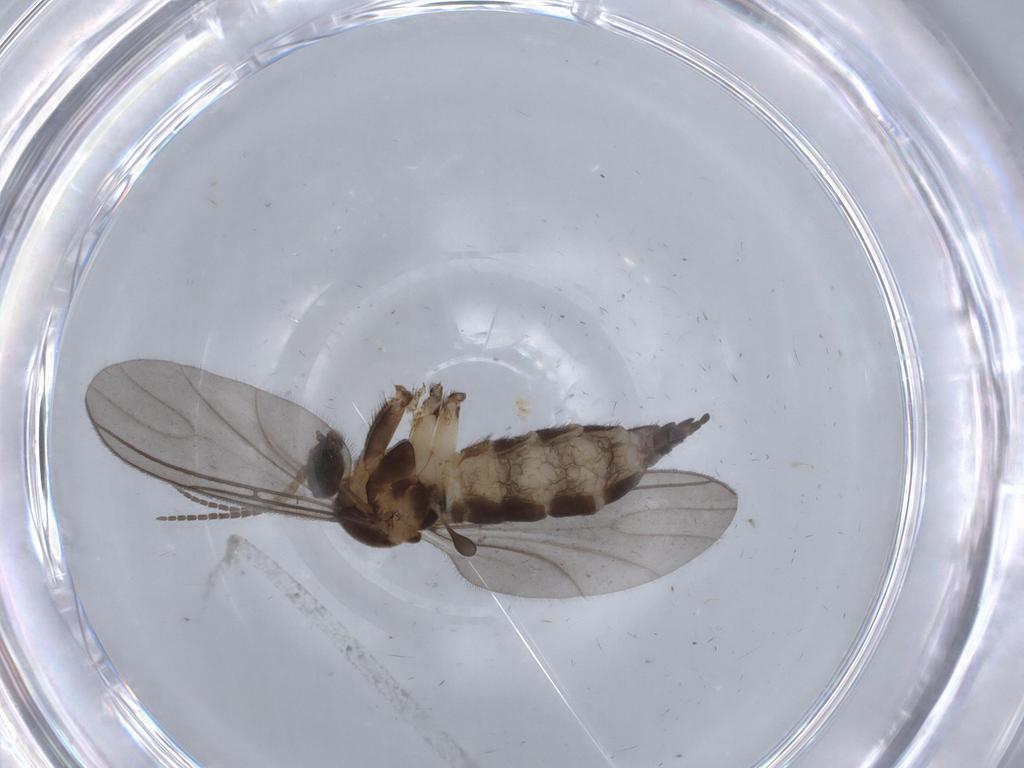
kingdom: Animalia
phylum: Arthropoda
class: Insecta
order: Diptera
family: Sciaridae
